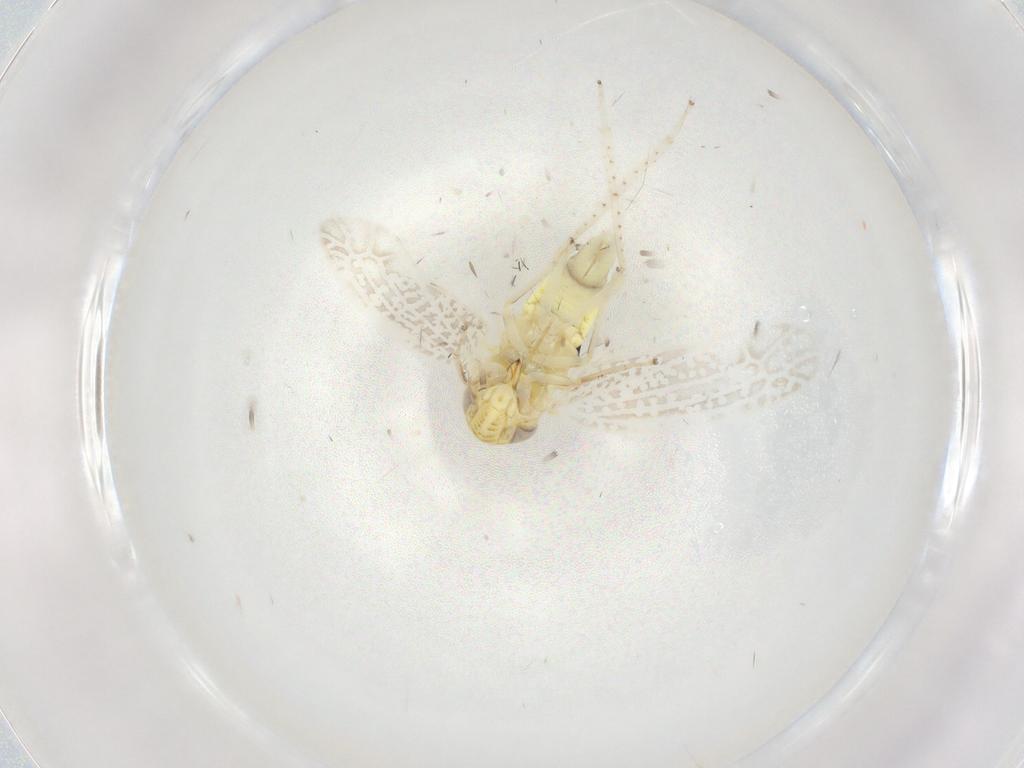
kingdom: Animalia
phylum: Arthropoda
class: Insecta
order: Hemiptera
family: Cicadellidae
